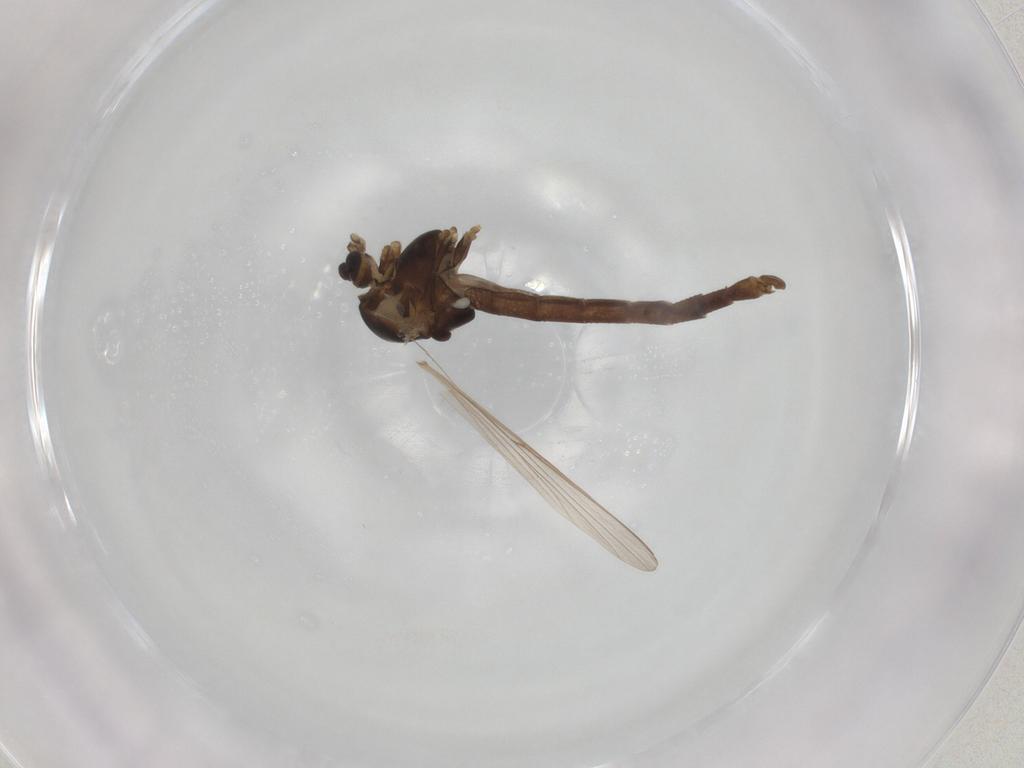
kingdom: Animalia
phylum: Arthropoda
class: Insecta
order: Diptera
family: Chironomidae
